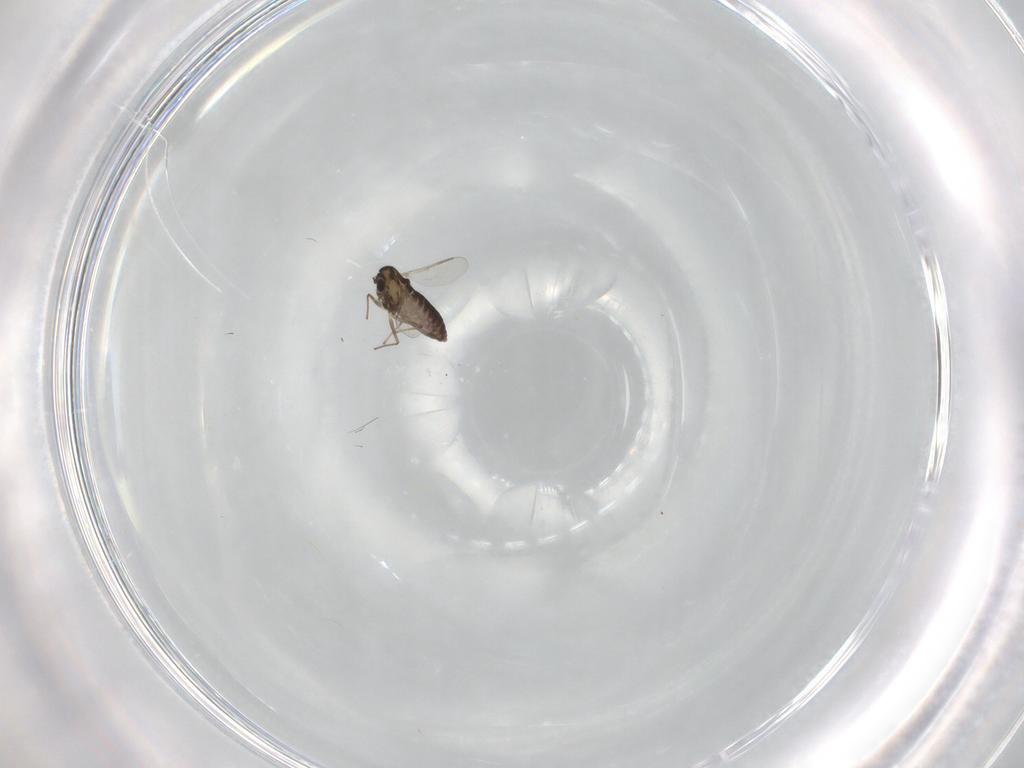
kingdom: Animalia
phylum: Arthropoda
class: Insecta
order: Diptera
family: Chironomidae
